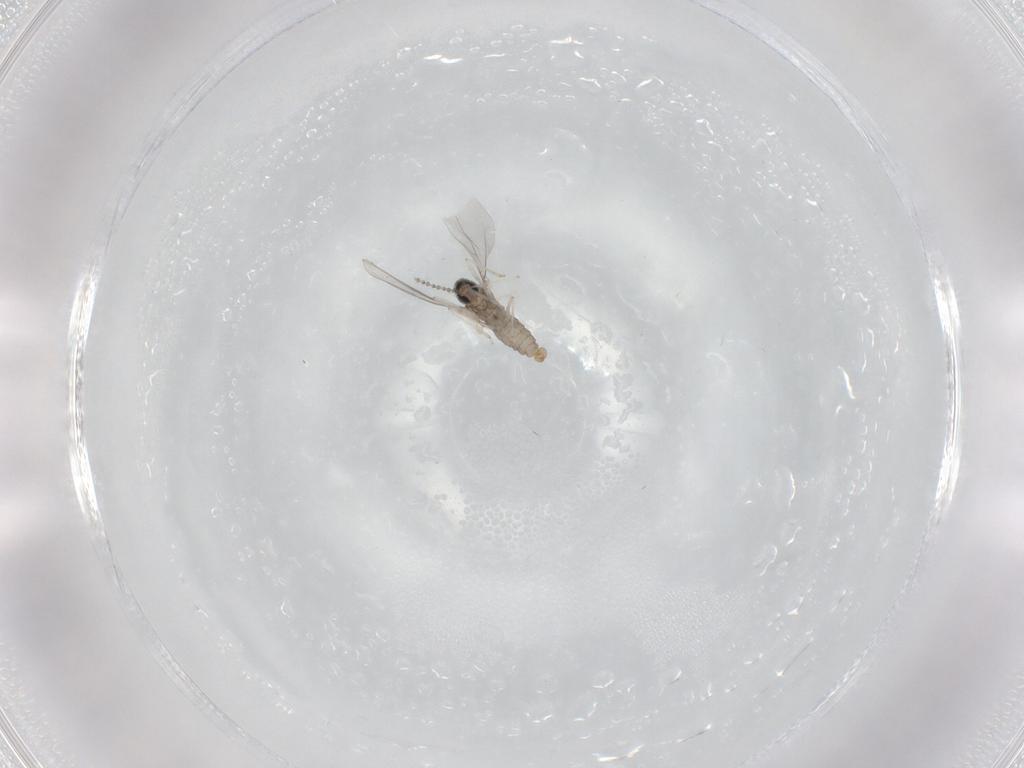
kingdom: Animalia
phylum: Arthropoda
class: Insecta
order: Diptera
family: Cecidomyiidae
